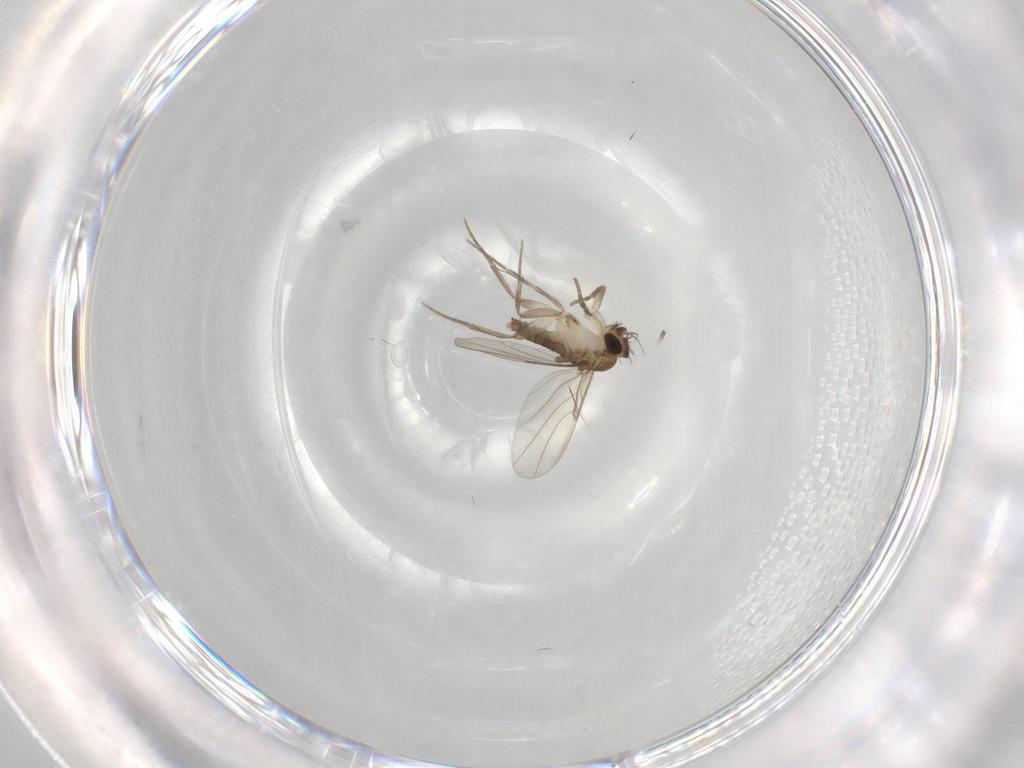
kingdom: Animalia
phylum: Arthropoda
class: Insecta
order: Diptera
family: Phoridae
